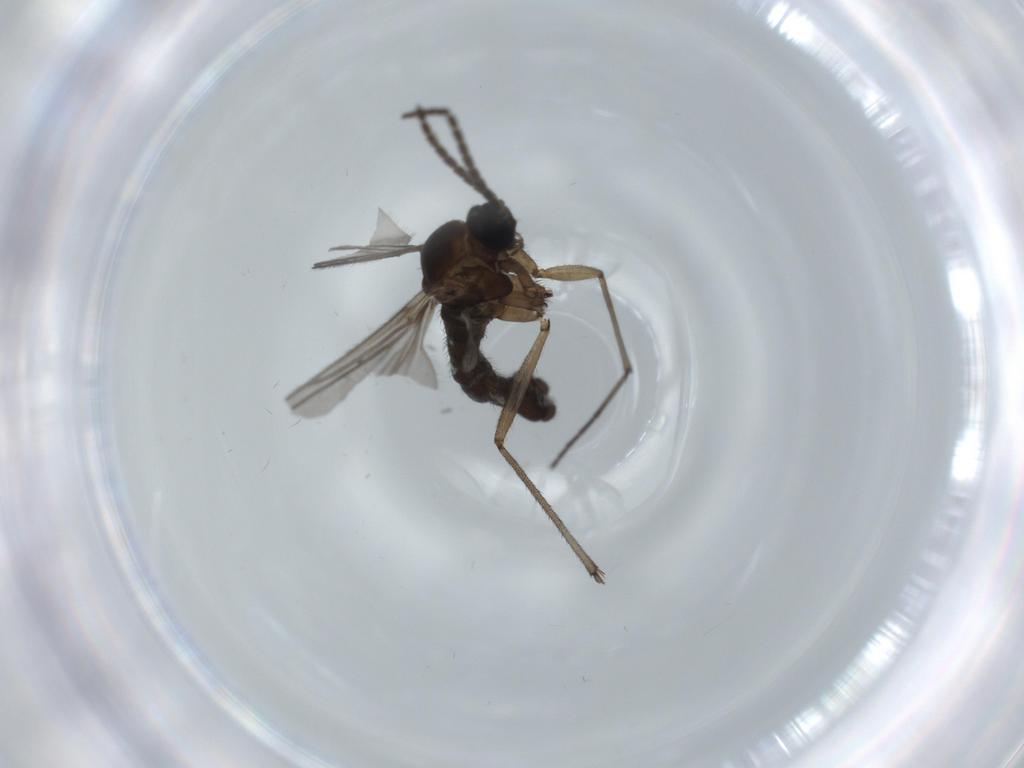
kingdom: Animalia
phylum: Arthropoda
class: Insecta
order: Diptera
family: Sciaridae
